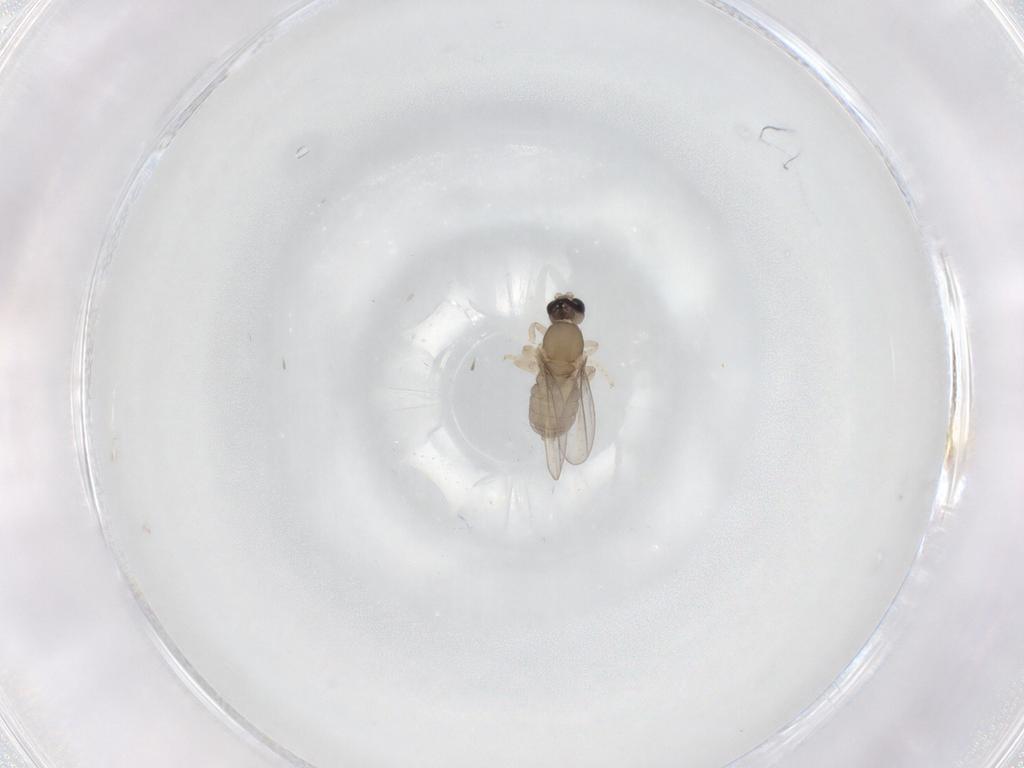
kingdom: Animalia
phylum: Arthropoda
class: Insecta
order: Diptera
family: Cecidomyiidae
